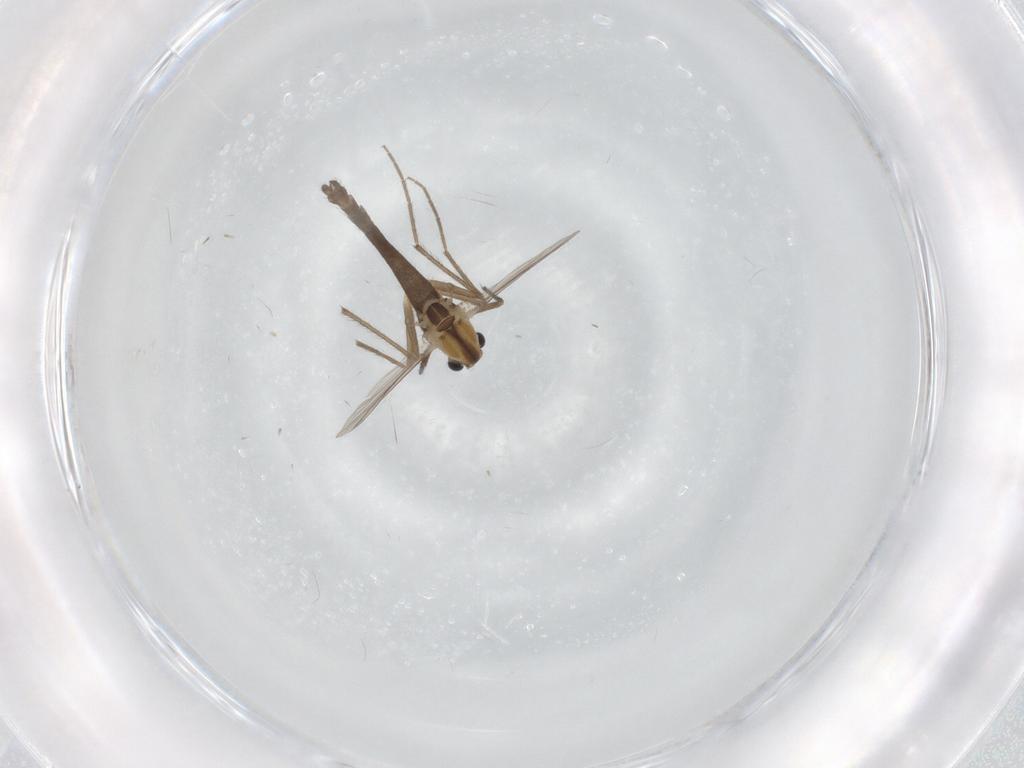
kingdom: Animalia
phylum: Arthropoda
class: Insecta
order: Diptera
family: Chironomidae
